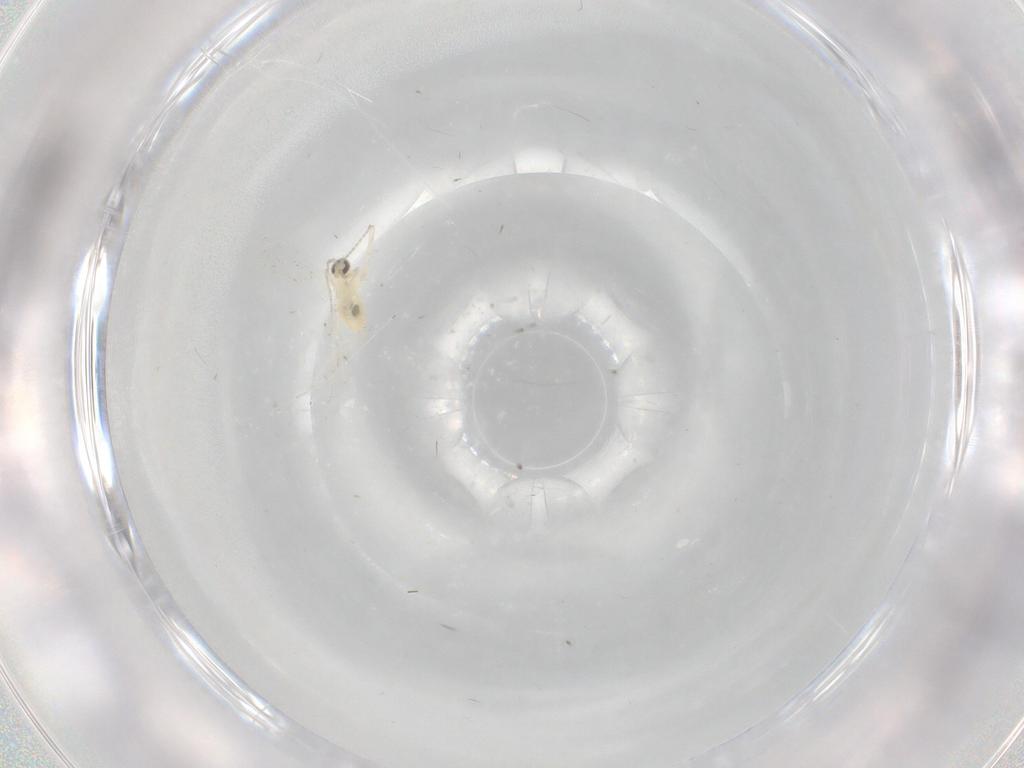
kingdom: Animalia
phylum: Arthropoda
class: Insecta
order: Diptera
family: Cecidomyiidae
